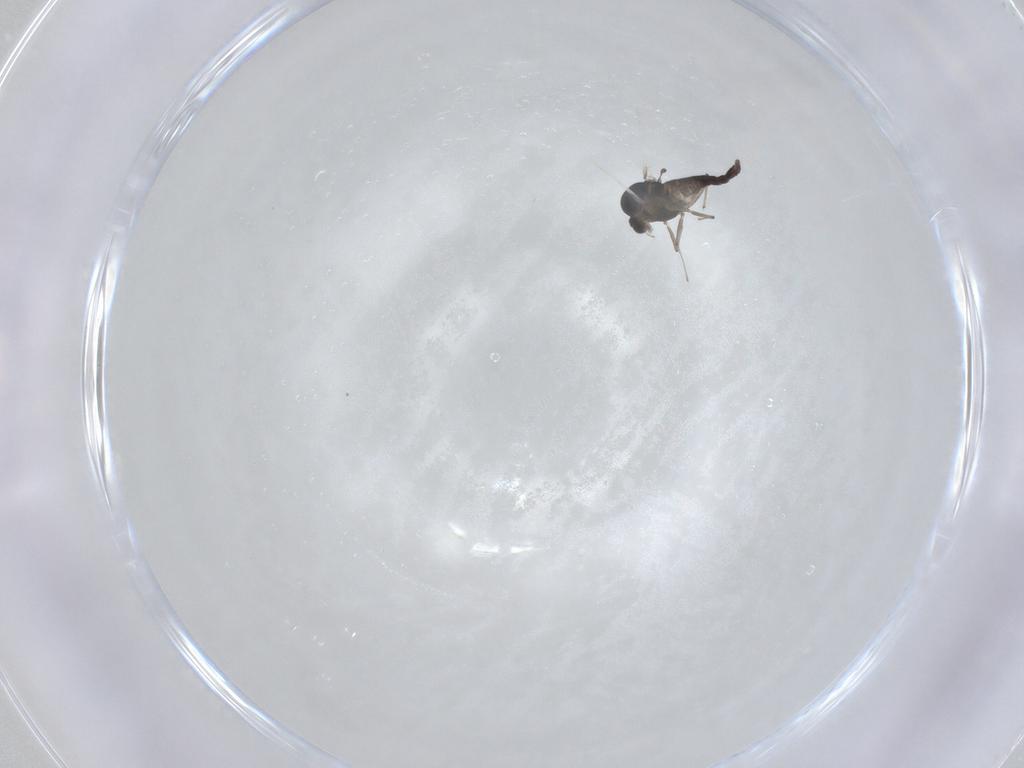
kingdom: Animalia
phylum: Arthropoda
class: Insecta
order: Diptera
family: Chironomidae
